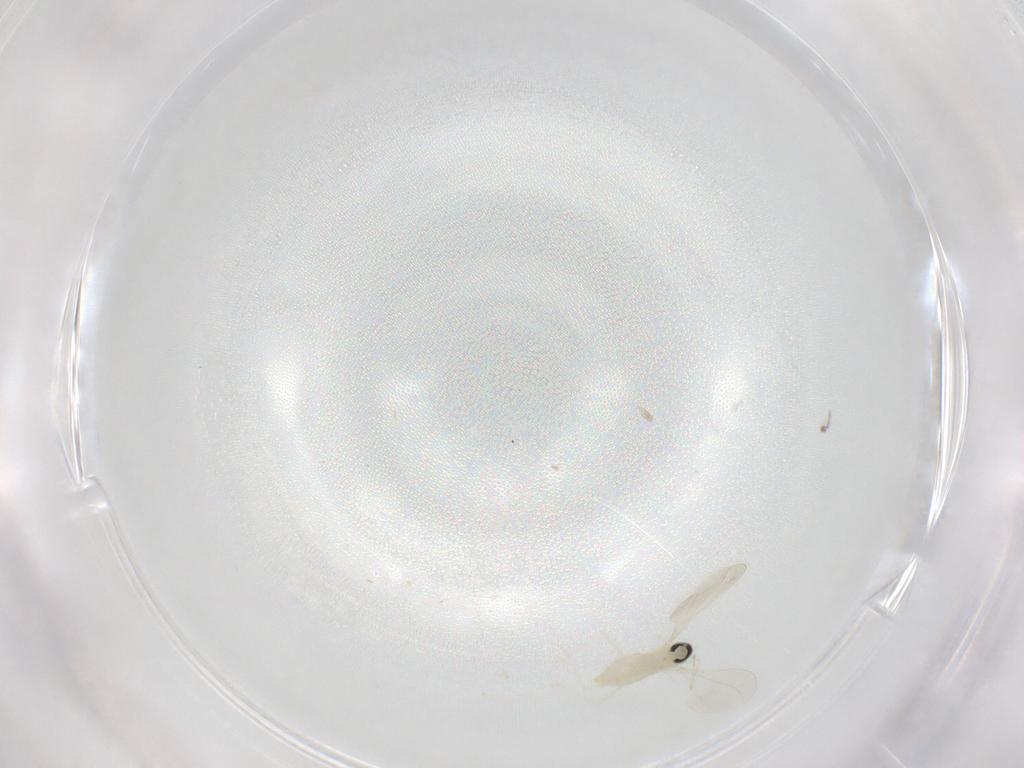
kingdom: Animalia
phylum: Arthropoda
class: Insecta
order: Diptera
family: Cecidomyiidae
